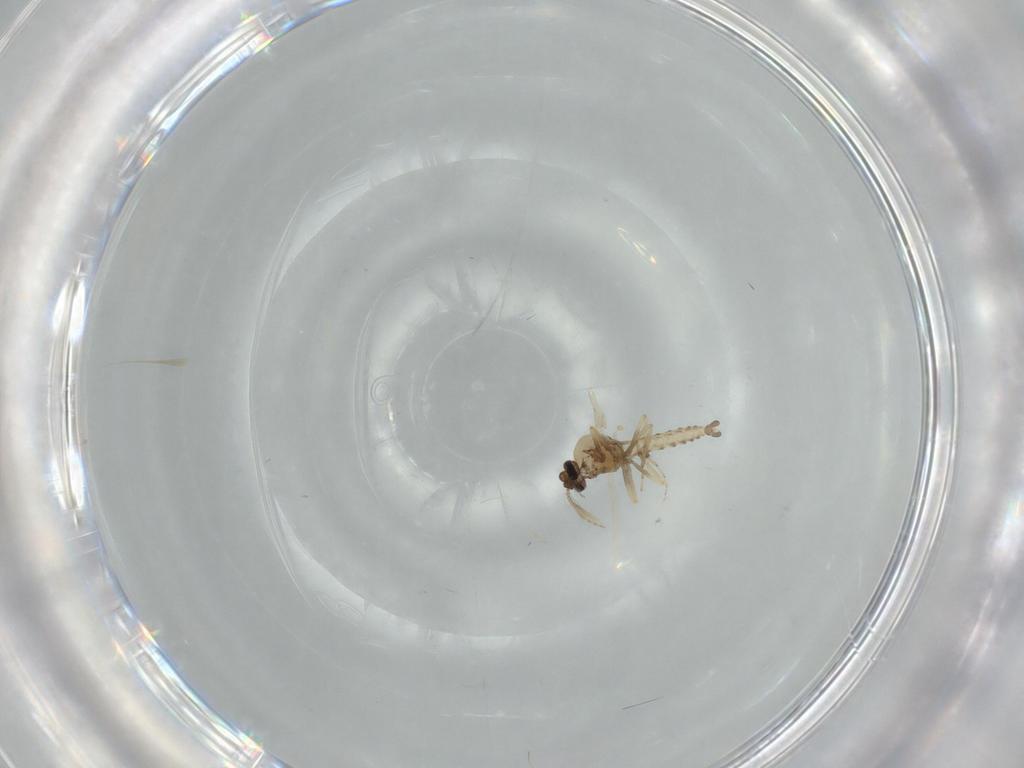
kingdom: Animalia
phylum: Arthropoda
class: Insecta
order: Diptera
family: Ceratopogonidae
